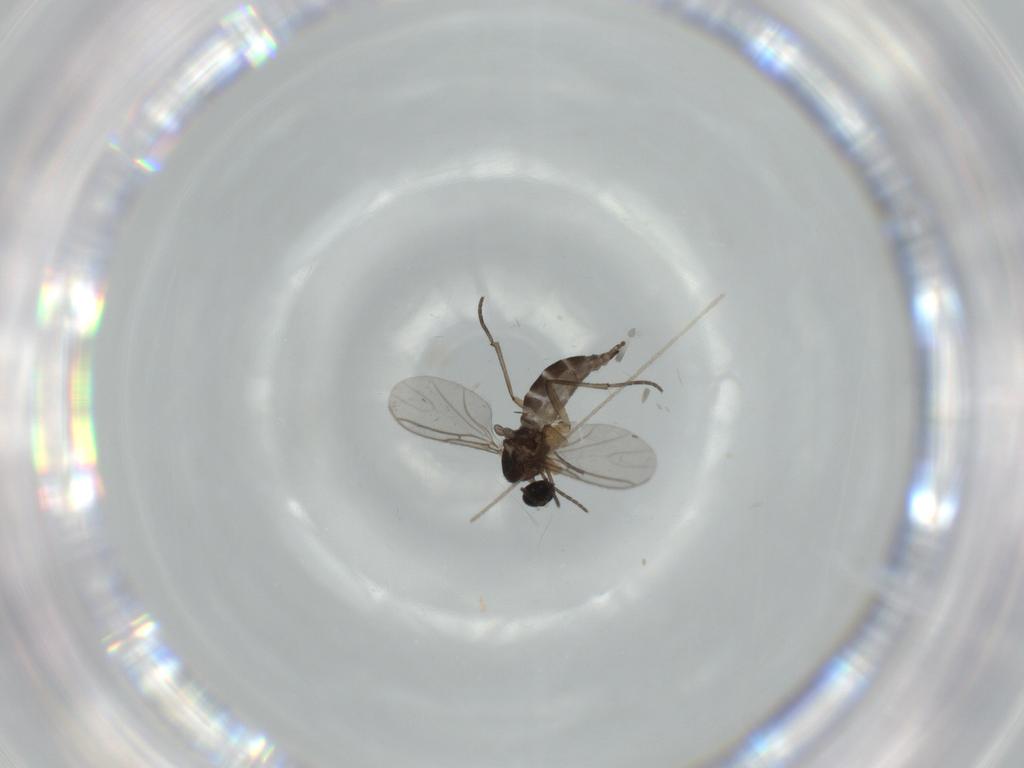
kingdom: Animalia
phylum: Arthropoda
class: Insecta
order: Diptera
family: Sciaridae
